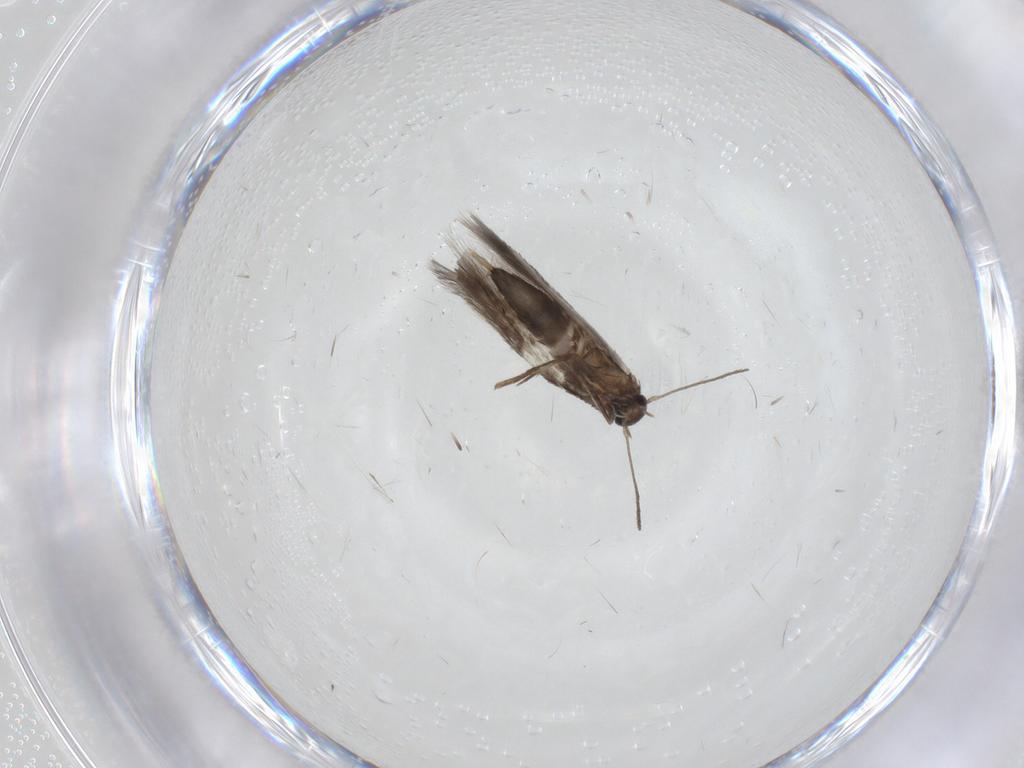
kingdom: Animalia
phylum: Arthropoda
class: Insecta
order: Lepidoptera
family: Heliozelidae
